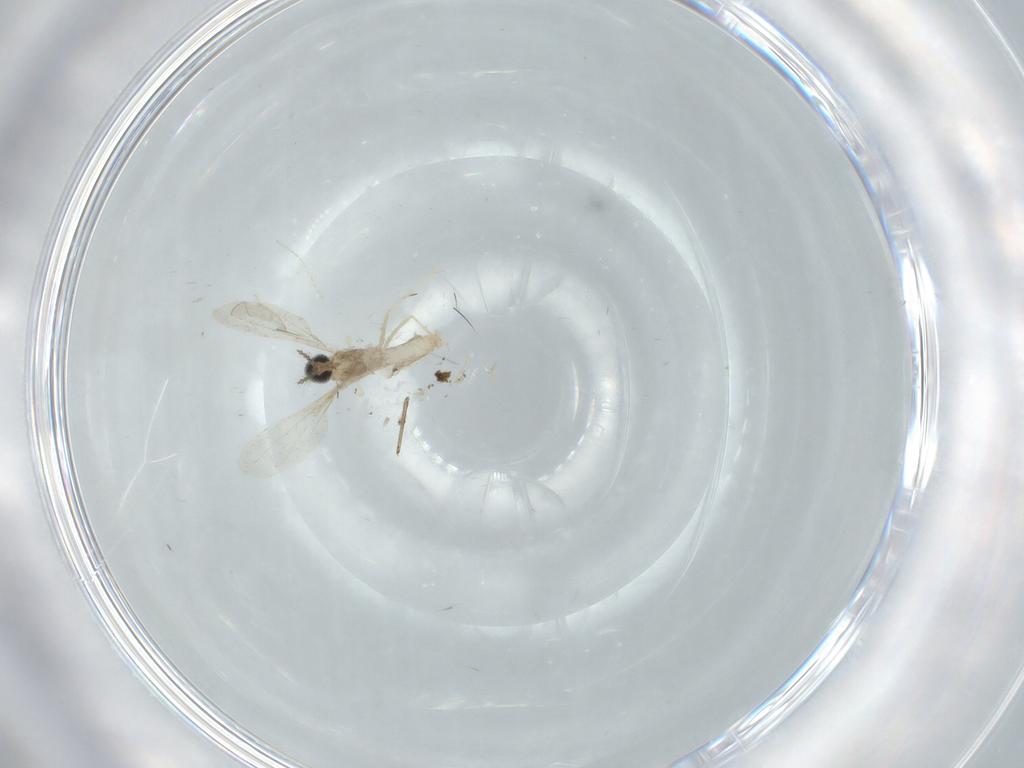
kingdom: Animalia
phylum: Arthropoda
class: Insecta
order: Diptera
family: Cecidomyiidae
